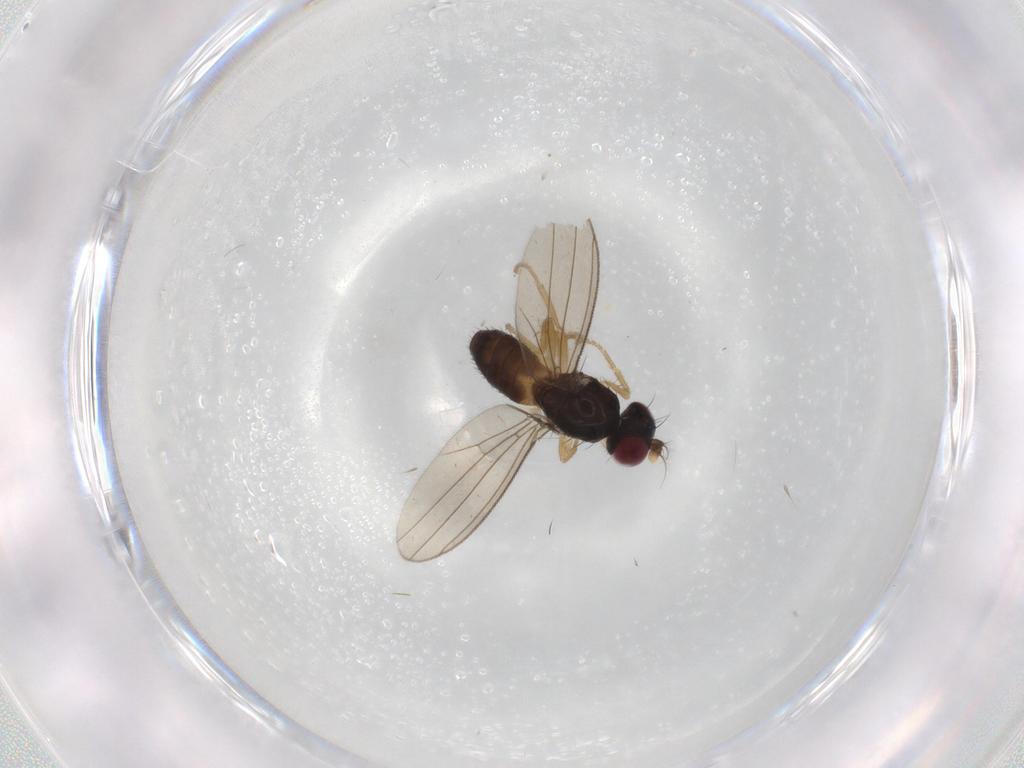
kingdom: Animalia
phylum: Arthropoda
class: Insecta
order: Diptera
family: Anthomyzidae
